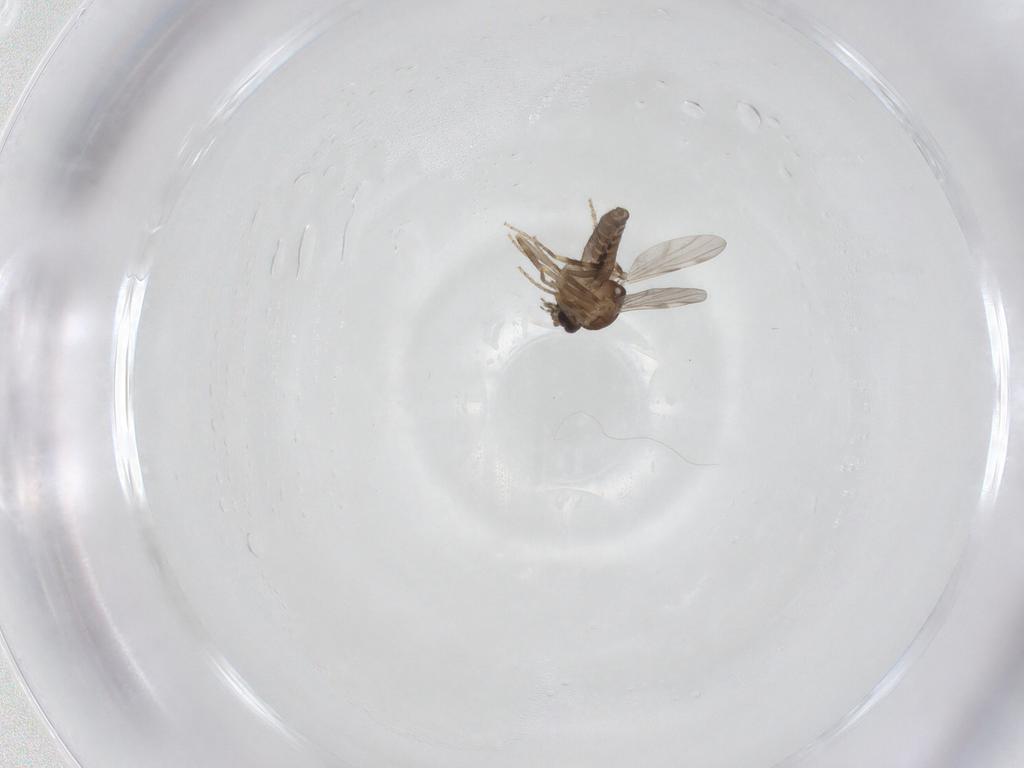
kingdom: Animalia
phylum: Arthropoda
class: Insecta
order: Diptera
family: Ceratopogonidae
